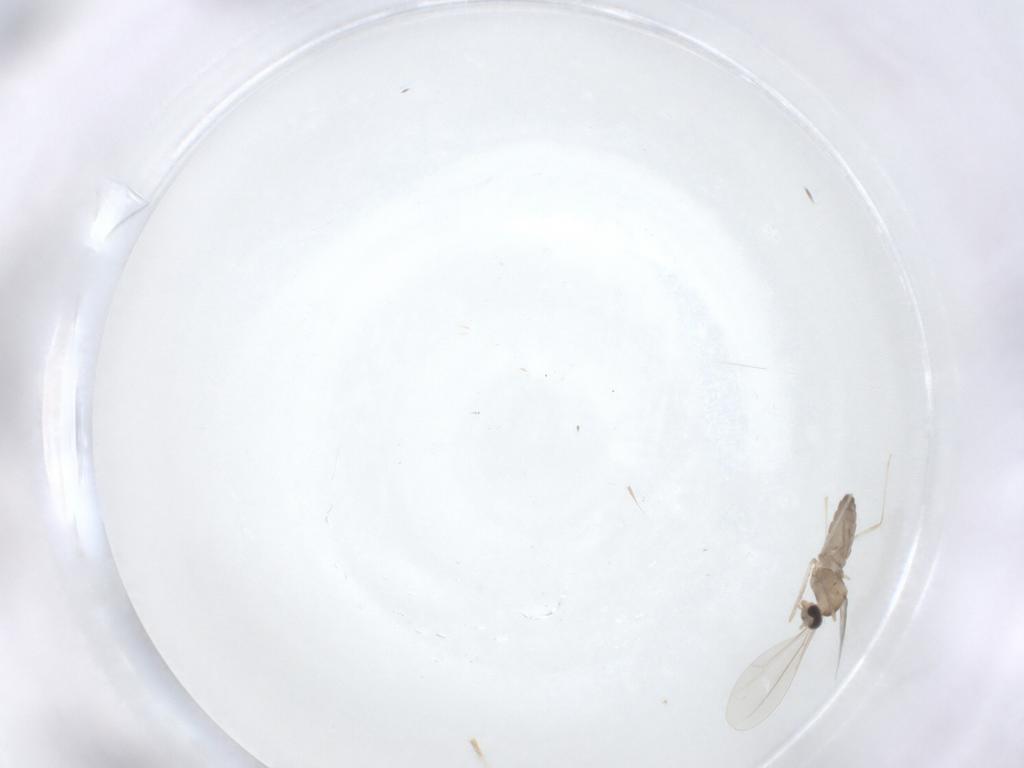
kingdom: Animalia
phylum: Arthropoda
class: Insecta
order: Diptera
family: Cecidomyiidae
